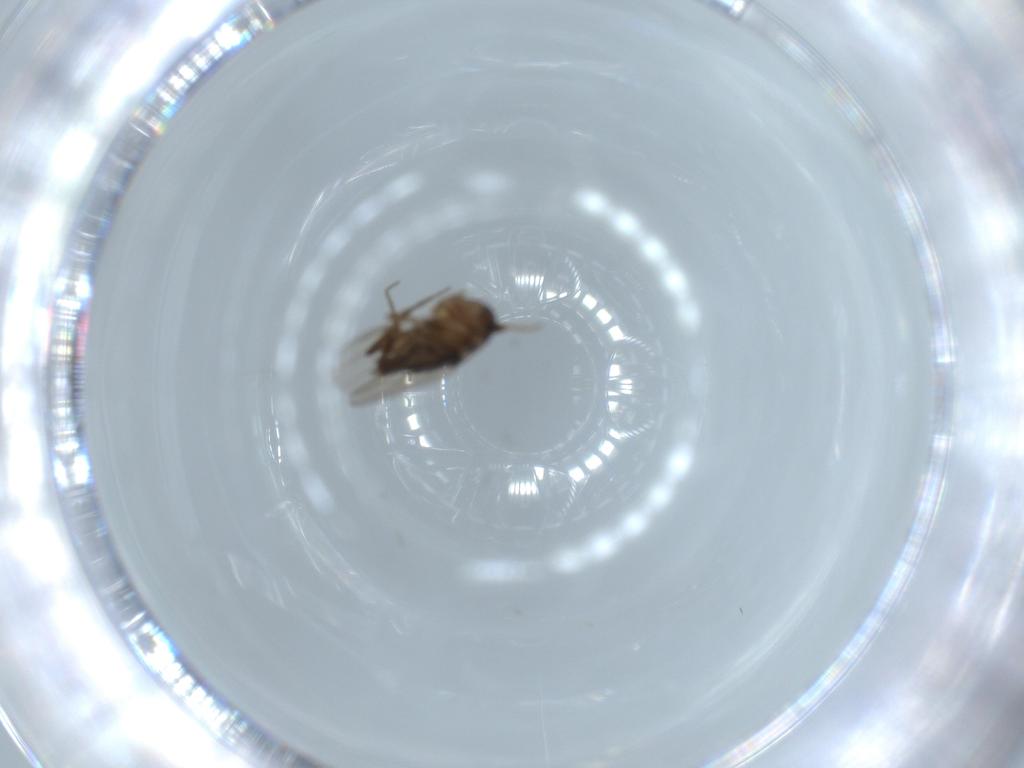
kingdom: Animalia
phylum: Arthropoda
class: Insecta
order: Diptera
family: Phoridae
